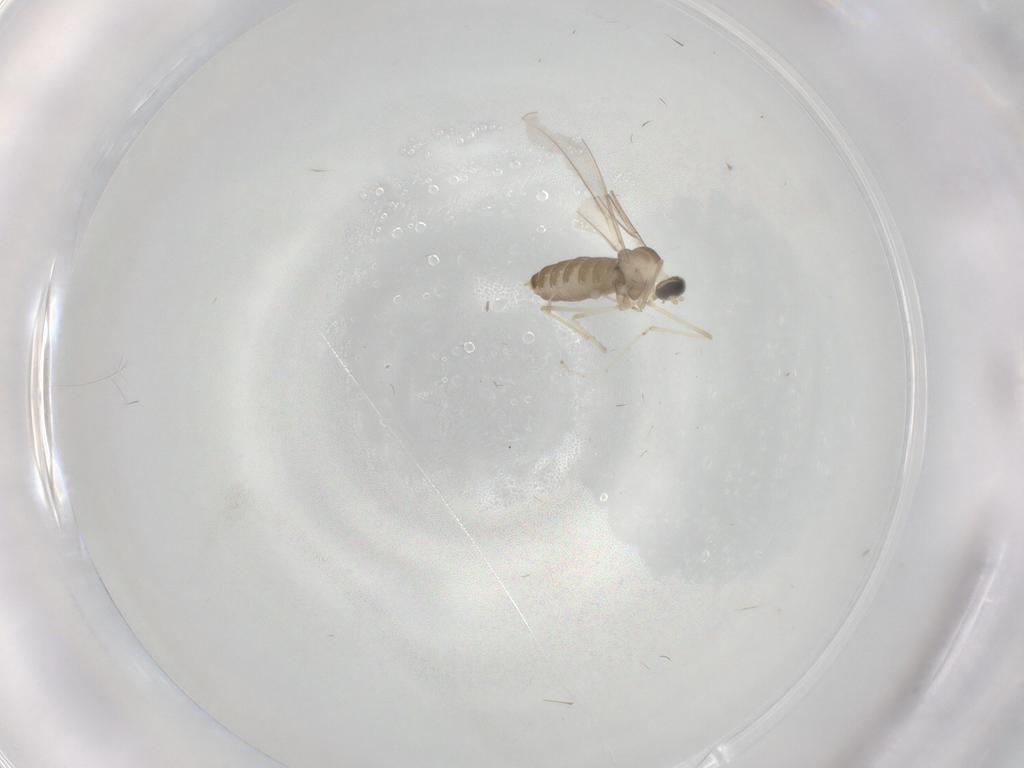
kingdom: Animalia
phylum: Arthropoda
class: Insecta
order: Diptera
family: Cecidomyiidae
